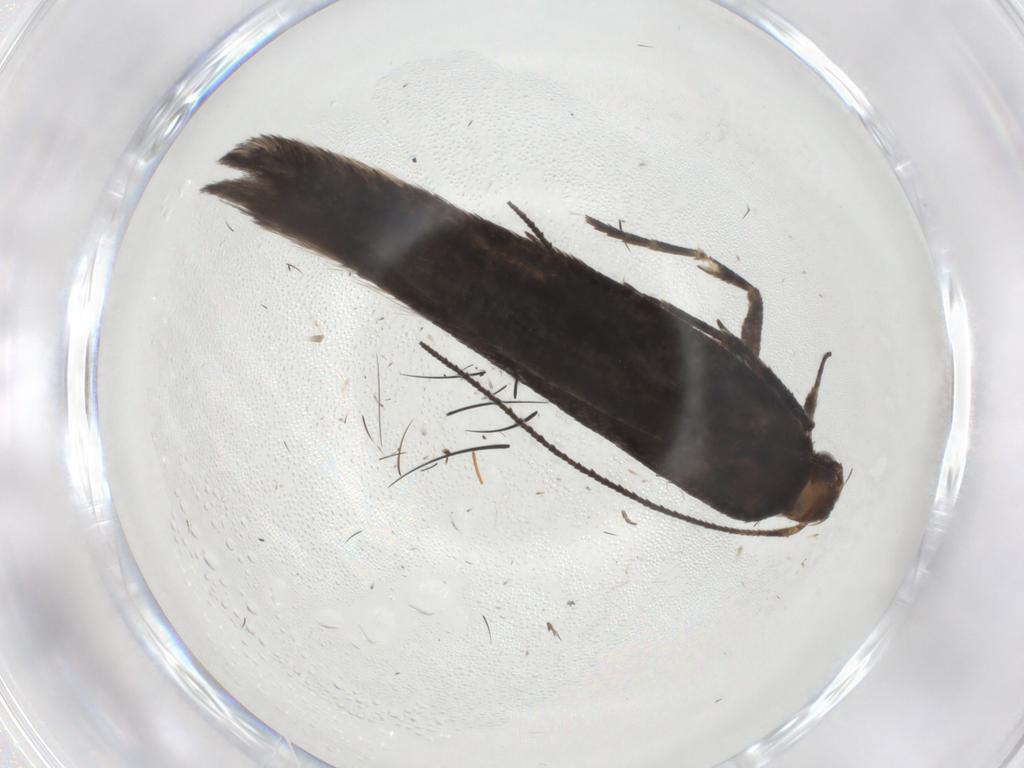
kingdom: Animalia
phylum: Arthropoda
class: Insecta
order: Lepidoptera
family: Gelechiidae
